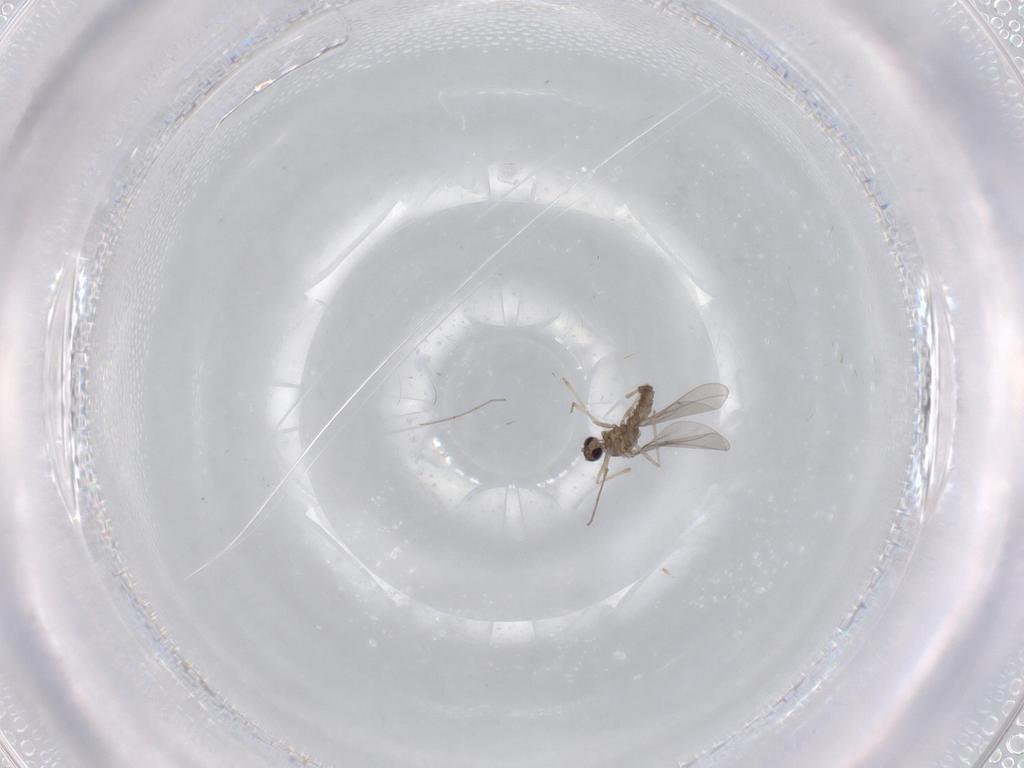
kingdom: Animalia
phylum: Arthropoda
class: Insecta
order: Diptera
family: Cecidomyiidae
